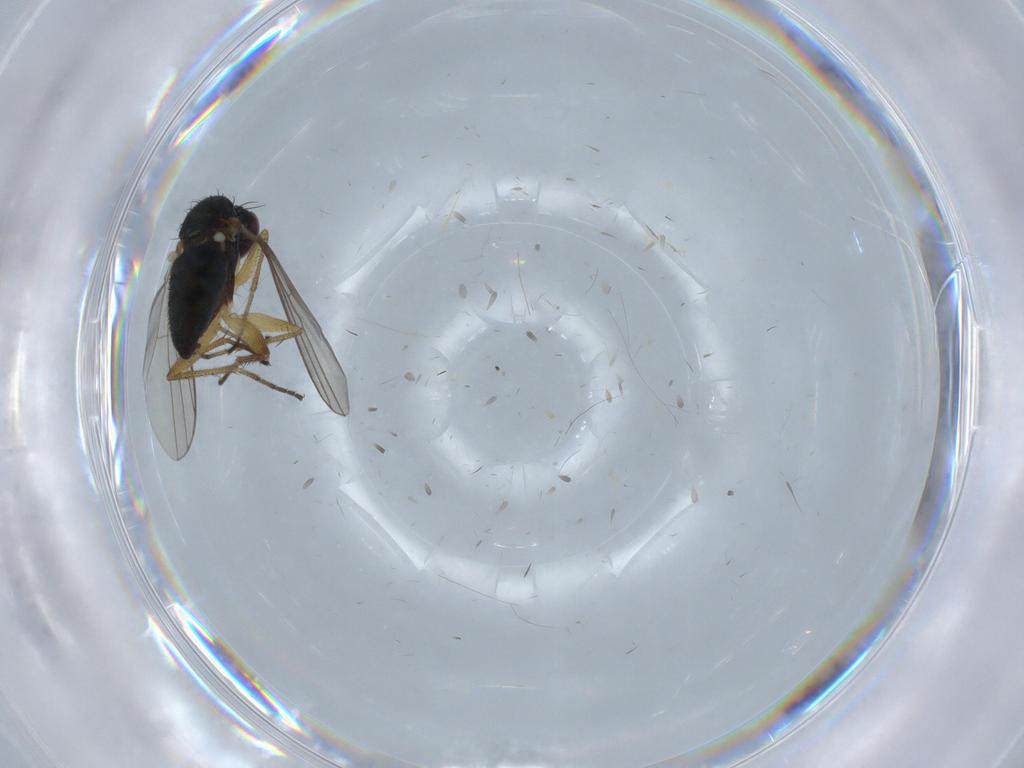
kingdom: Animalia
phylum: Arthropoda
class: Insecta
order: Diptera
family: Dolichopodidae
